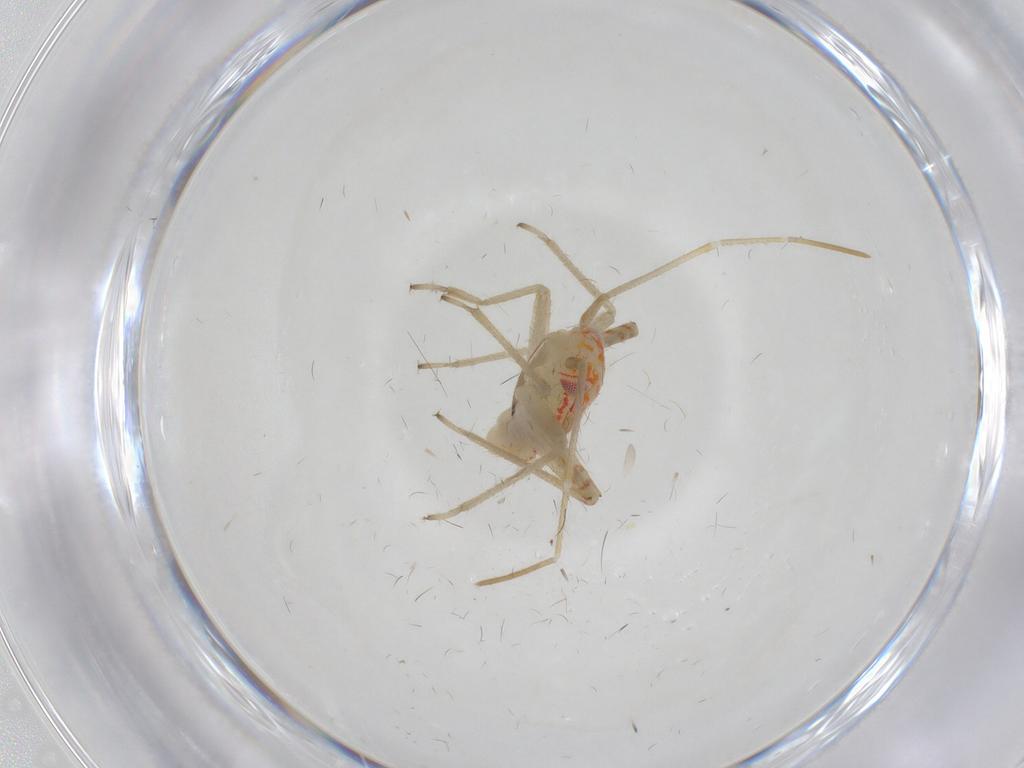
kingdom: Animalia
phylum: Arthropoda
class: Insecta
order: Hemiptera
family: Miridae
